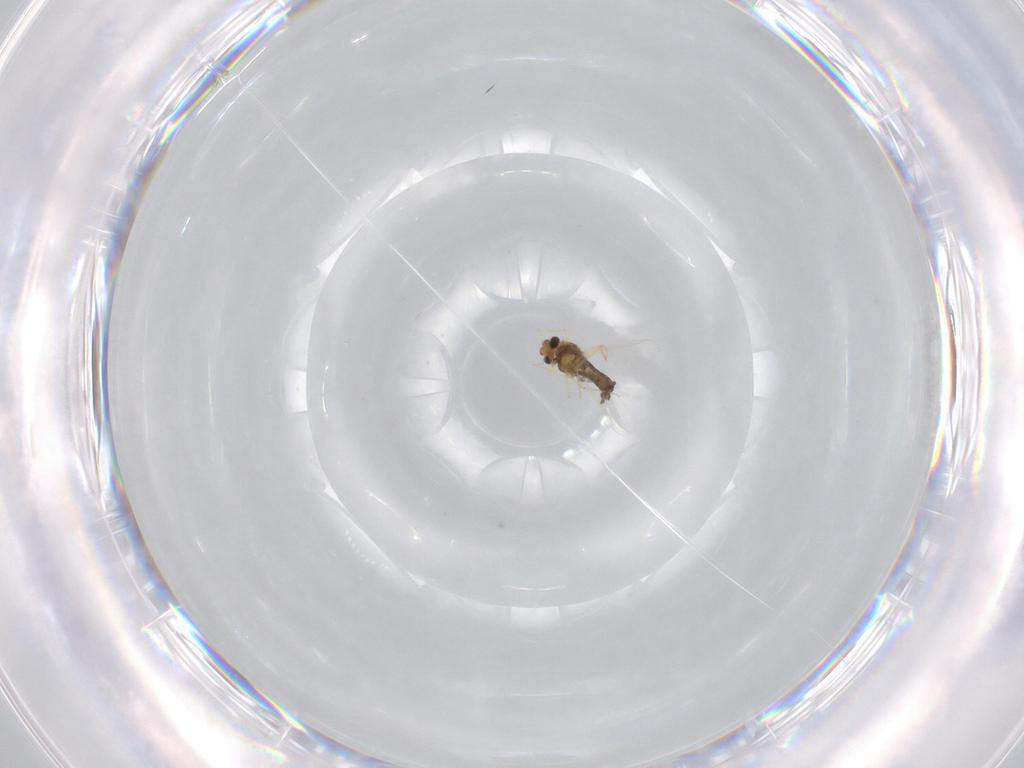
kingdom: Animalia
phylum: Arthropoda
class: Insecta
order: Diptera
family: Chironomidae
